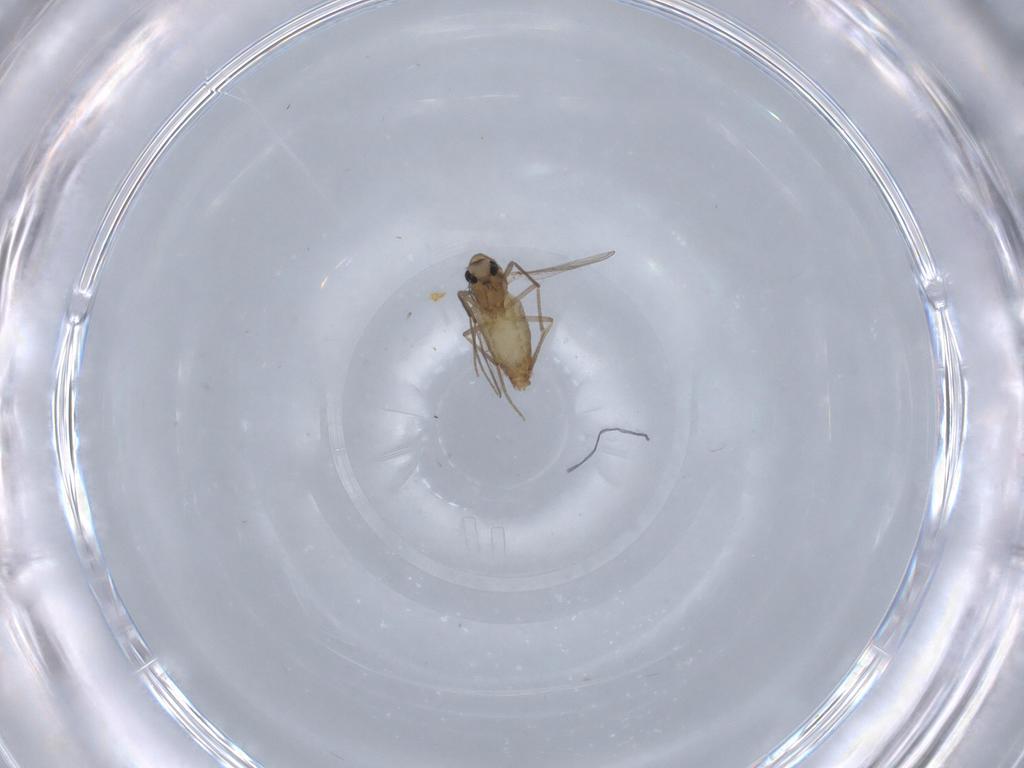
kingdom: Animalia
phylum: Arthropoda
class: Insecta
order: Diptera
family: Chironomidae
